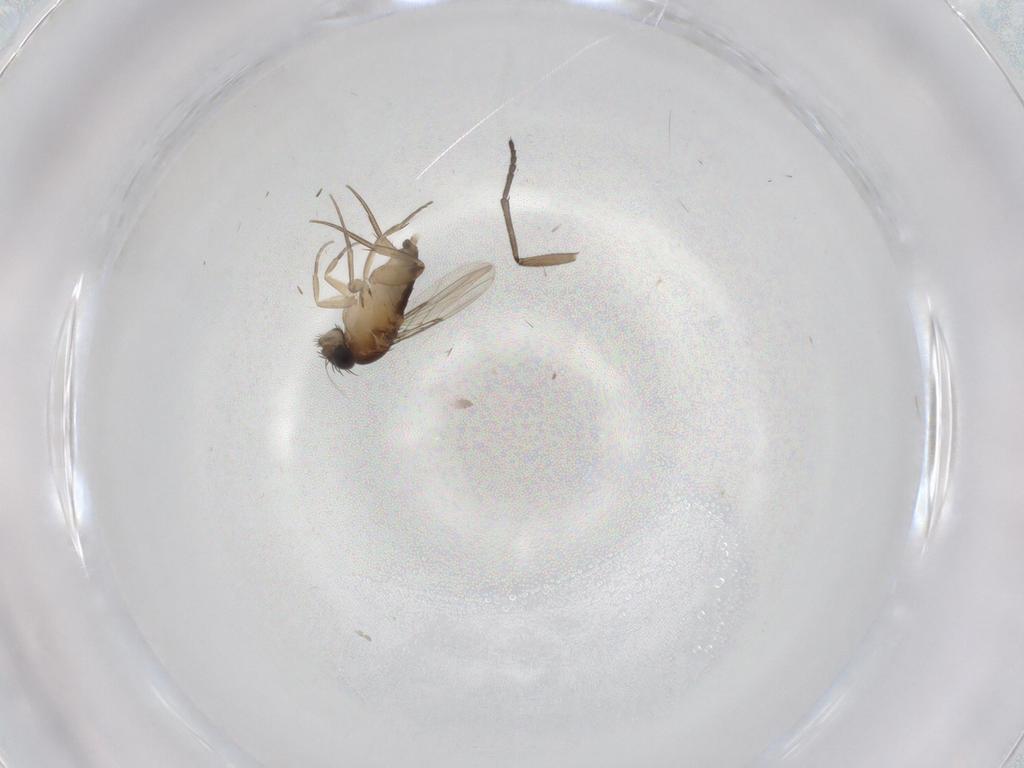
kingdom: Animalia
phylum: Arthropoda
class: Insecta
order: Diptera
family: Phoridae
